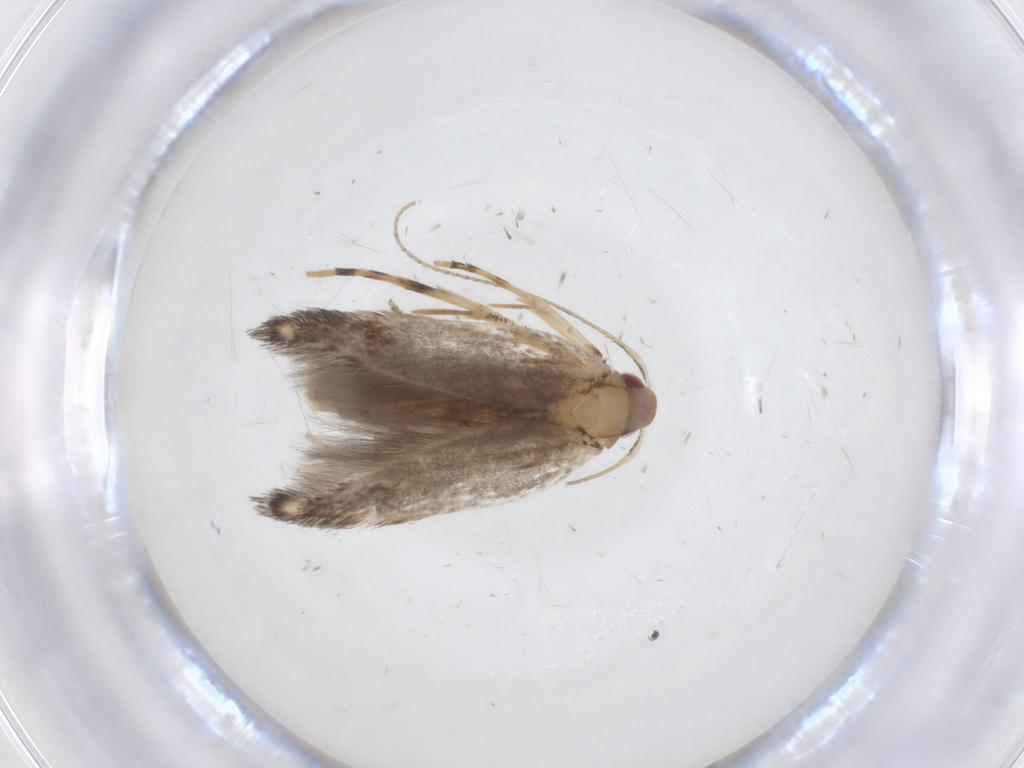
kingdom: Animalia
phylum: Arthropoda
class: Insecta
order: Lepidoptera
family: Cosmopterigidae
